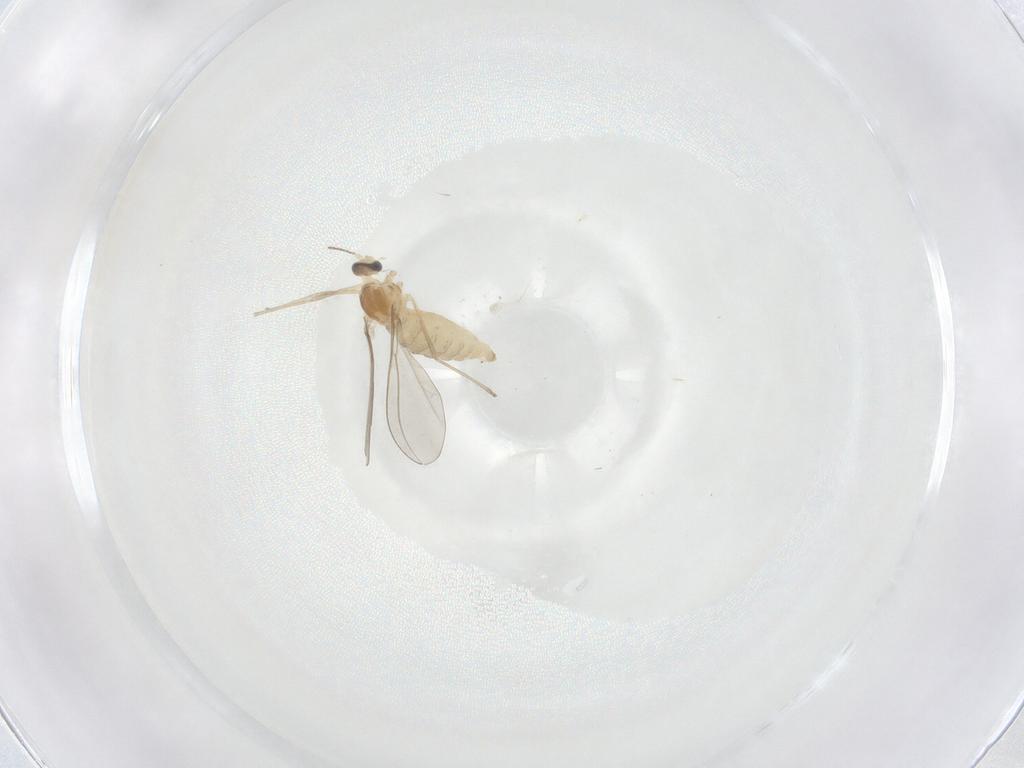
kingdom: Animalia
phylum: Arthropoda
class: Insecta
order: Diptera
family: Cecidomyiidae
